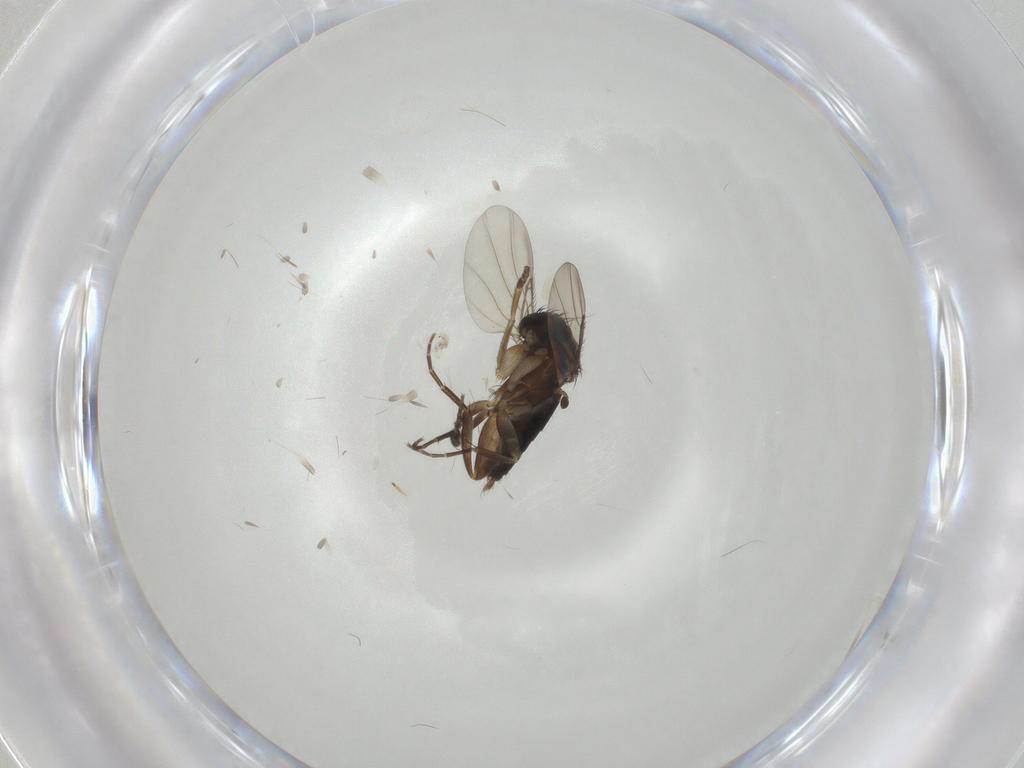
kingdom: Animalia
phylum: Arthropoda
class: Insecta
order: Diptera
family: Phoridae
